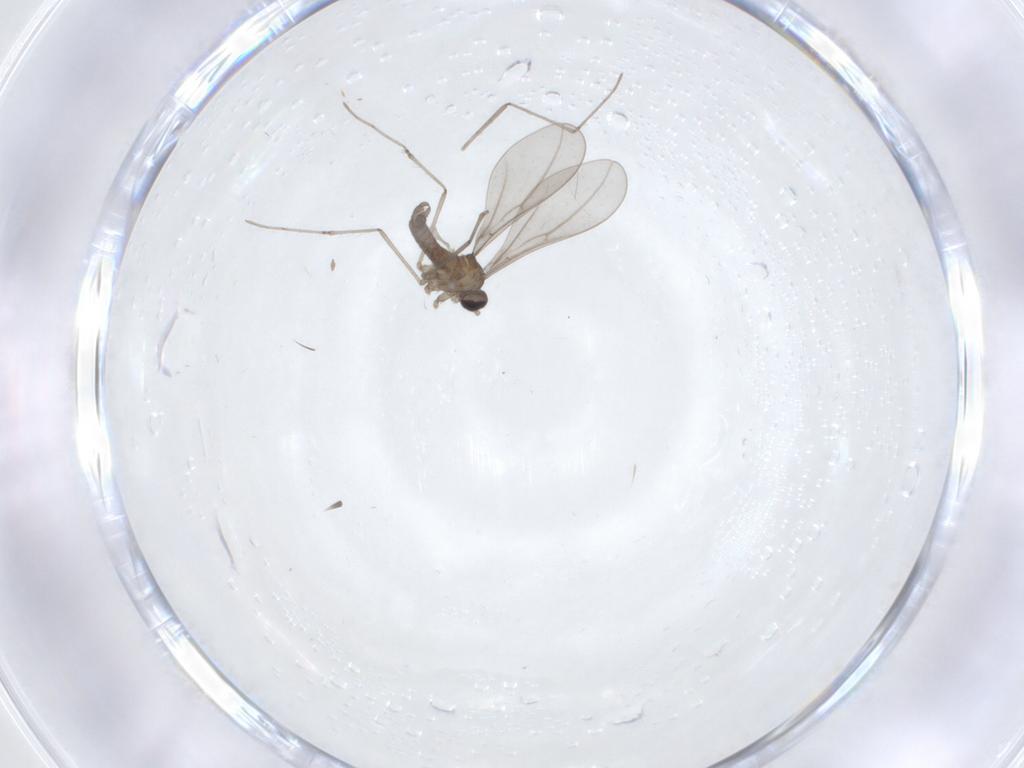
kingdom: Animalia
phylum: Arthropoda
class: Insecta
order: Diptera
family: Cecidomyiidae
